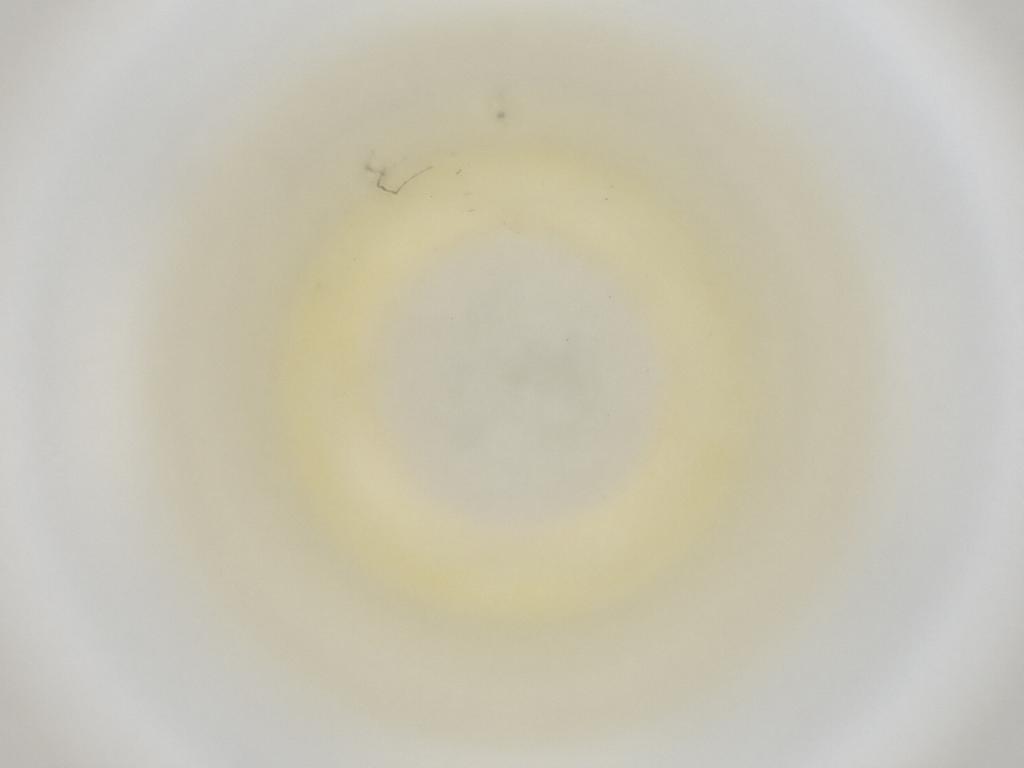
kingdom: Animalia
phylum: Arthropoda
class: Insecta
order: Diptera
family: Cecidomyiidae
